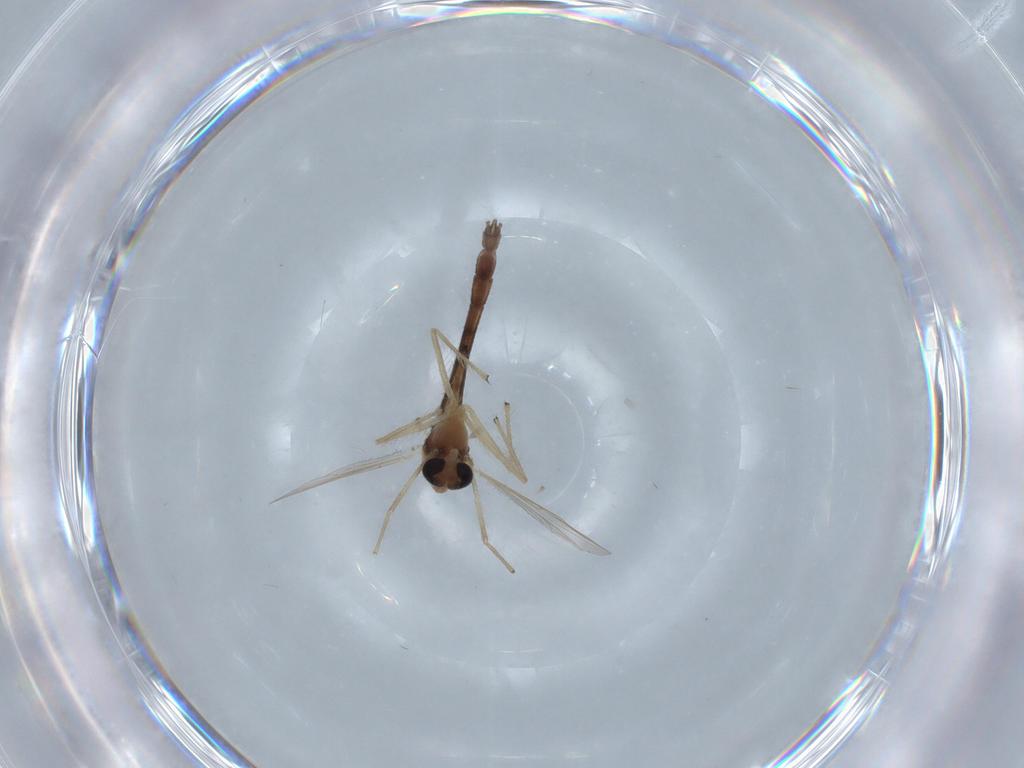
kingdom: Animalia
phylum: Arthropoda
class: Insecta
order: Diptera
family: Chironomidae
